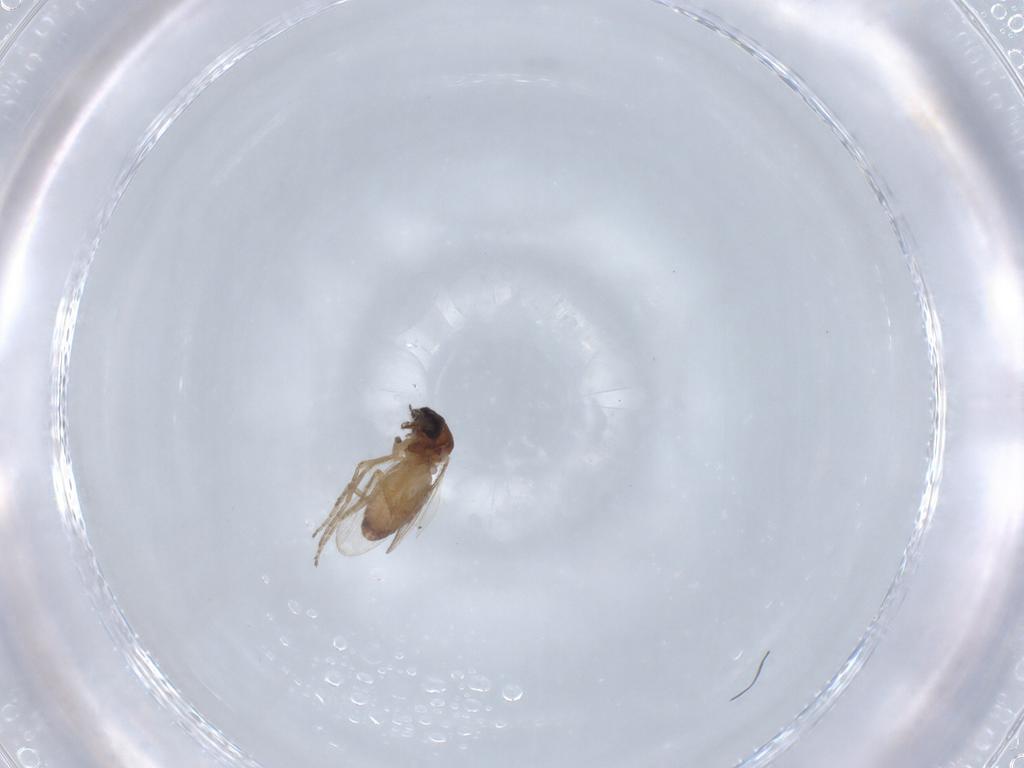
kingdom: Animalia
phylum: Arthropoda
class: Insecta
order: Diptera
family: Ceratopogonidae
